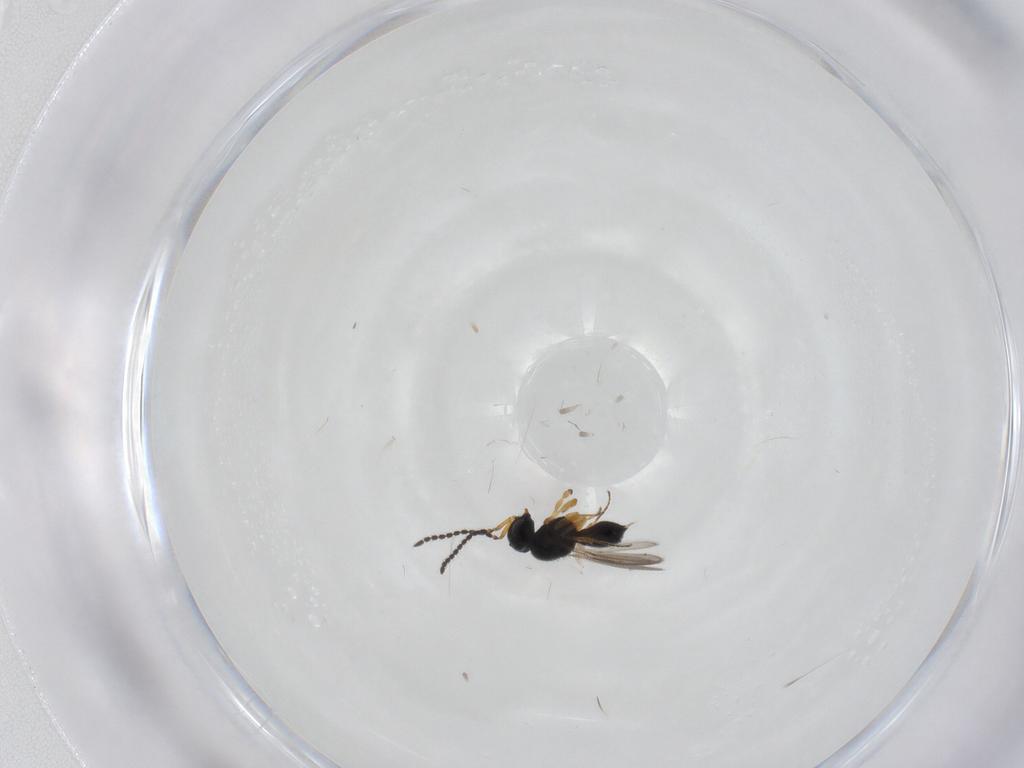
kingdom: Animalia
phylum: Arthropoda
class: Insecta
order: Hymenoptera
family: Scelionidae
